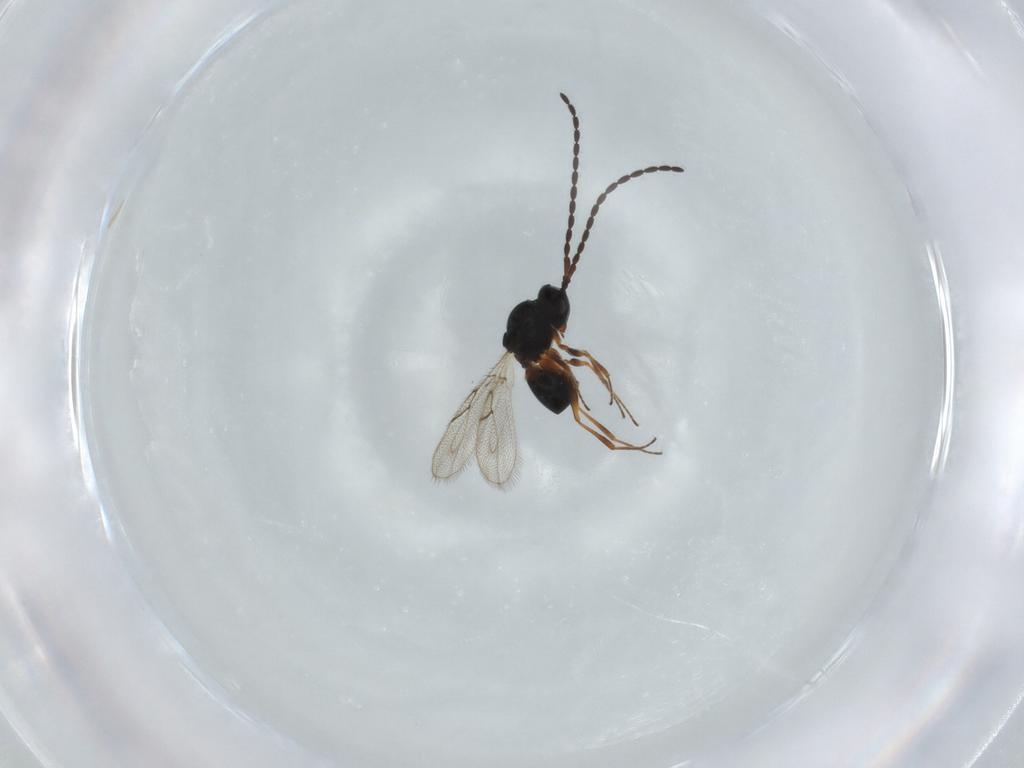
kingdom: Animalia
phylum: Arthropoda
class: Insecta
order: Hymenoptera
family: Figitidae
